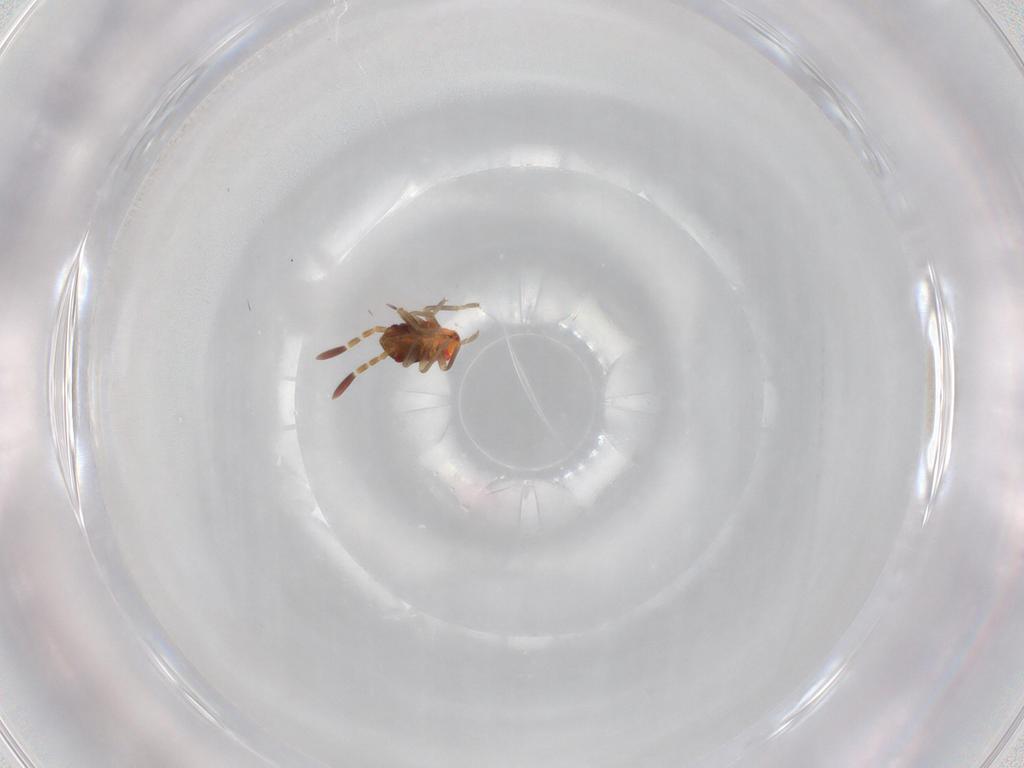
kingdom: Animalia
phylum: Arthropoda
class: Insecta
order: Hemiptera
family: Rhyparochromidae
